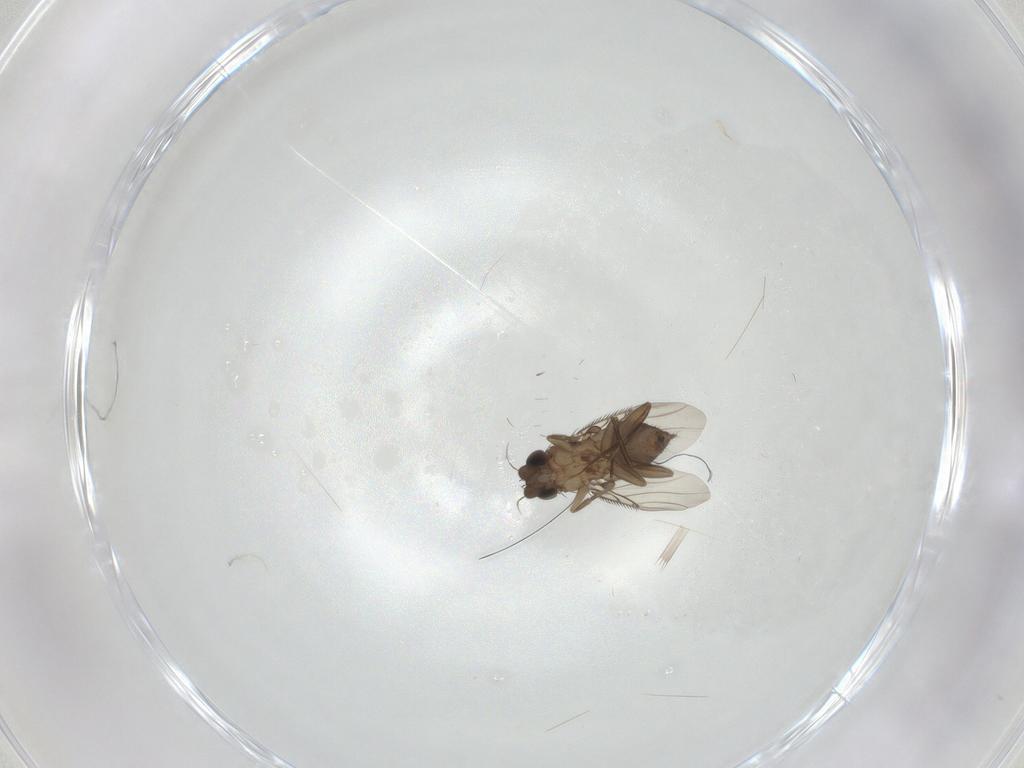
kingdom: Animalia
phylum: Arthropoda
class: Insecta
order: Diptera
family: Phoridae
